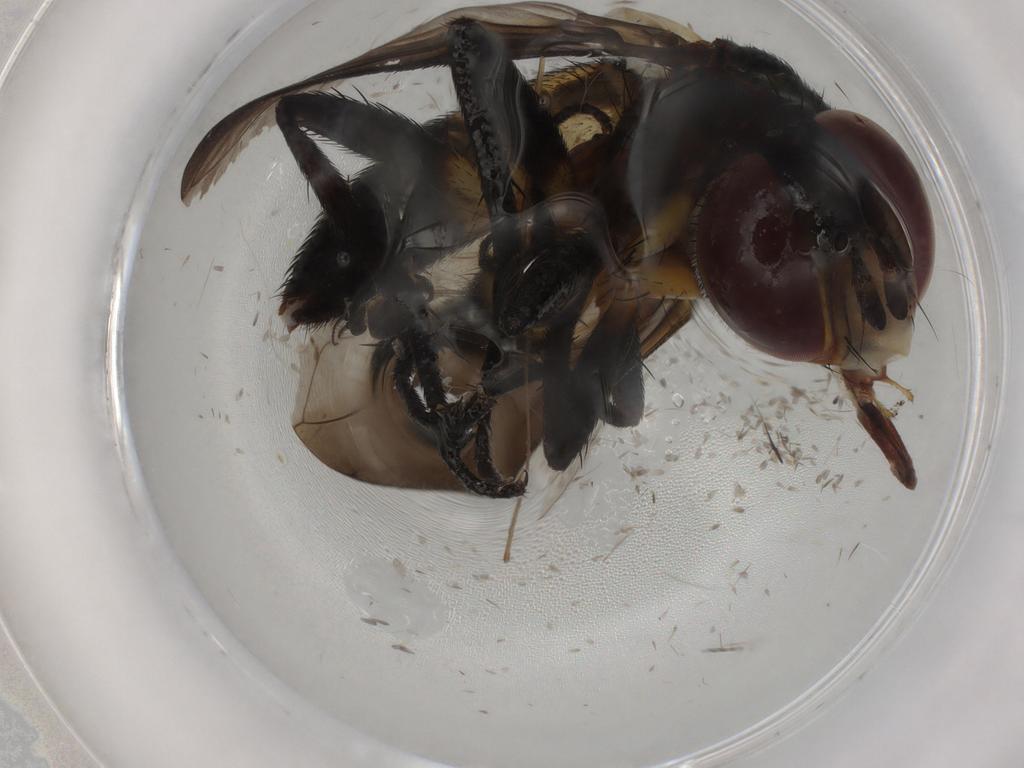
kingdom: Animalia
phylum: Arthropoda
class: Insecta
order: Diptera
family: Tachinidae
